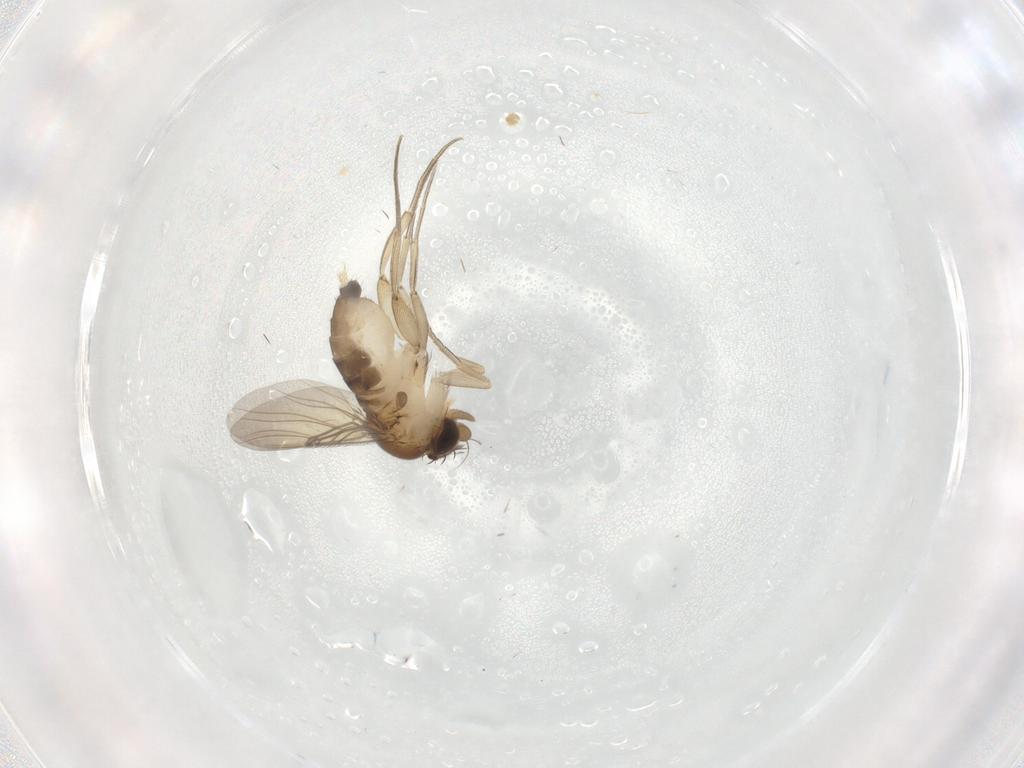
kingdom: Animalia
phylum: Arthropoda
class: Insecta
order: Diptera
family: Phoridae
